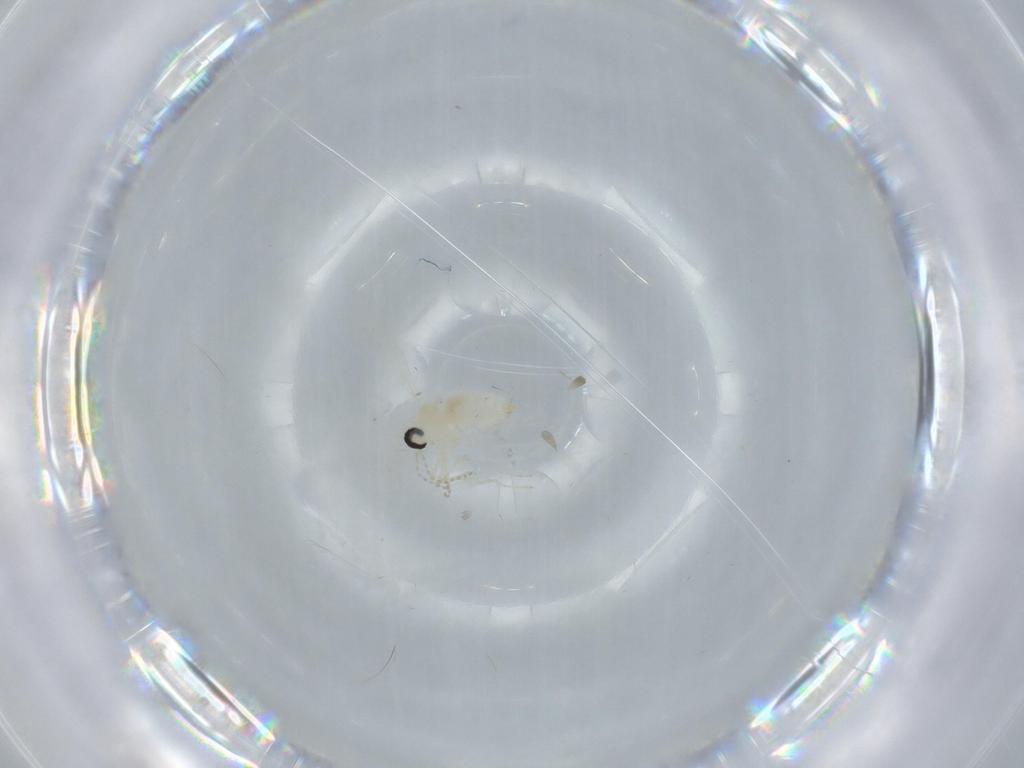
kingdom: Animalia
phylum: Arthropoda
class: Insecta
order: Diptera
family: Cecidomyiidae
